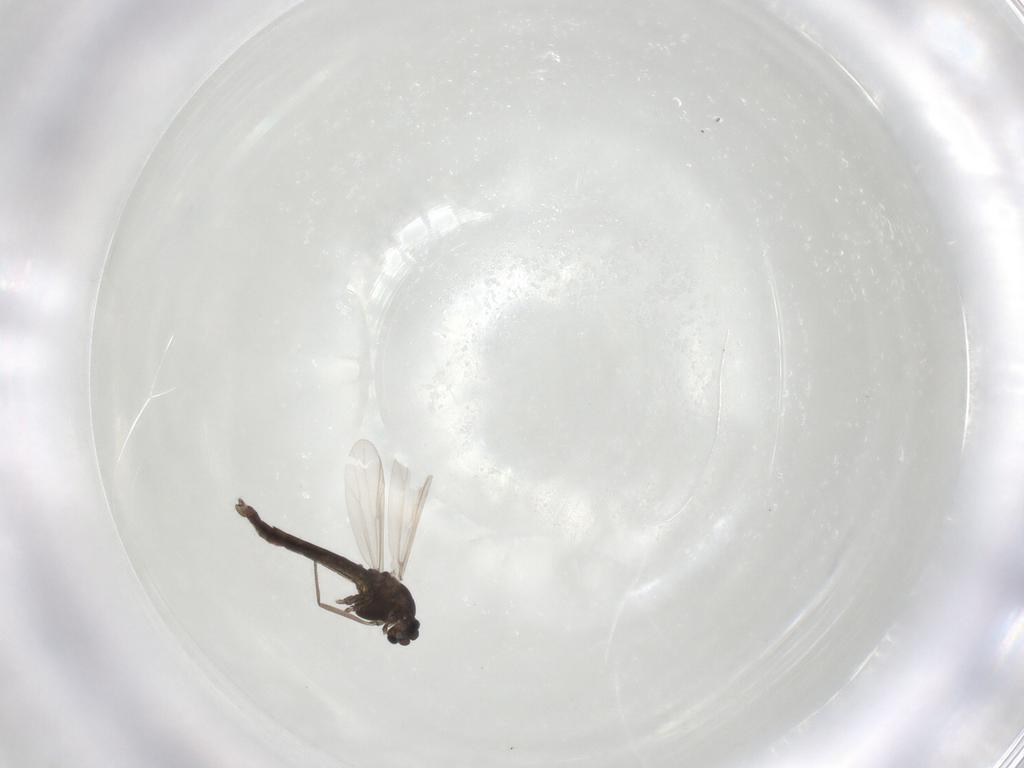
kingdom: Animalia
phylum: Arthropoda
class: Insecta
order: Diptera
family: Chironomidae
